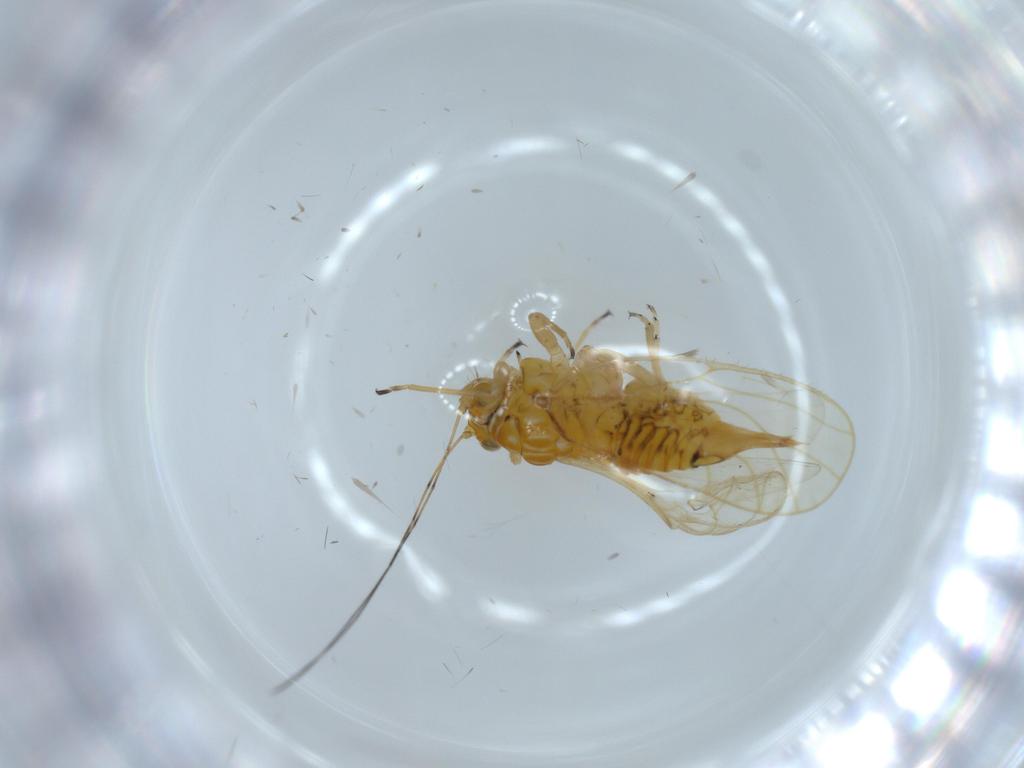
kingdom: Animalia
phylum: Arthropoda
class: Insecta
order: Hemiptera
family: Psyllidae
